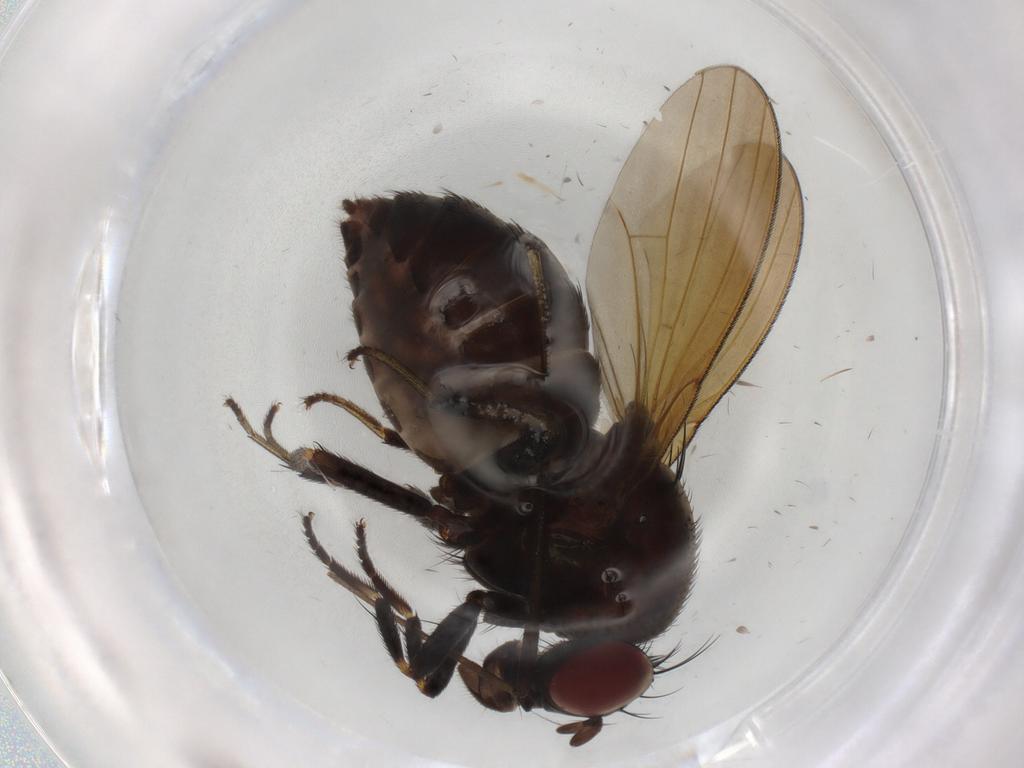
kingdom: Animalia
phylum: Arthropoda
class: Insecta
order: Diptera
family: Lauxaniidae
